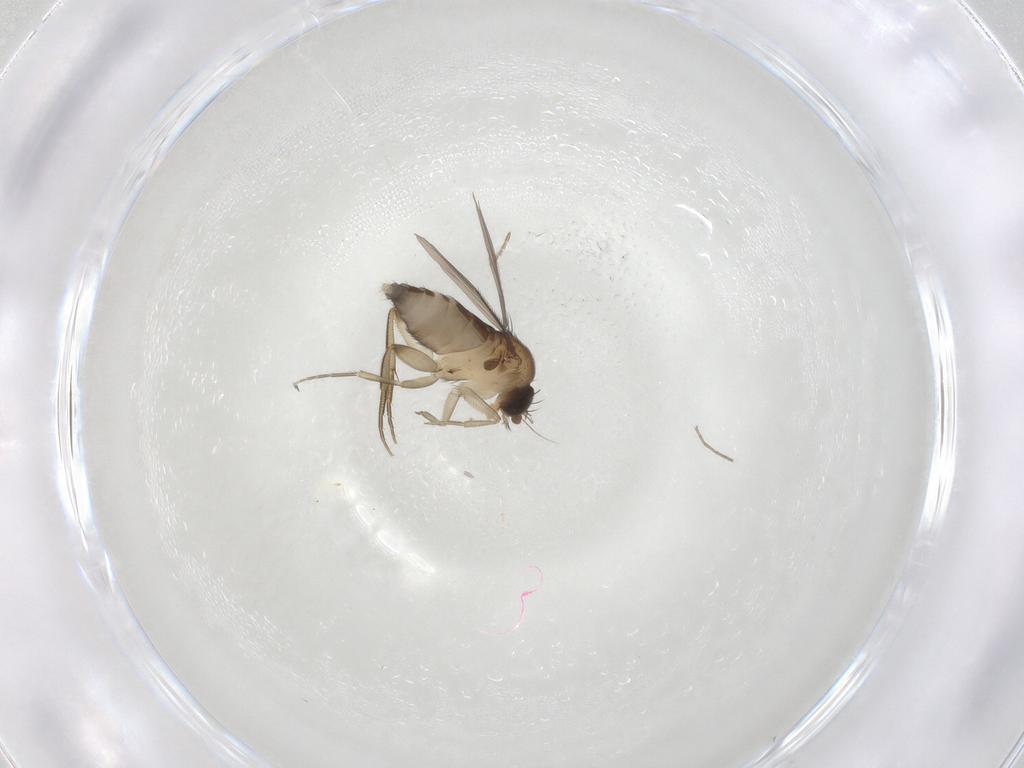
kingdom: Animalia
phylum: Arthropoda
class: Insecta
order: Diptera
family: Phoridae
